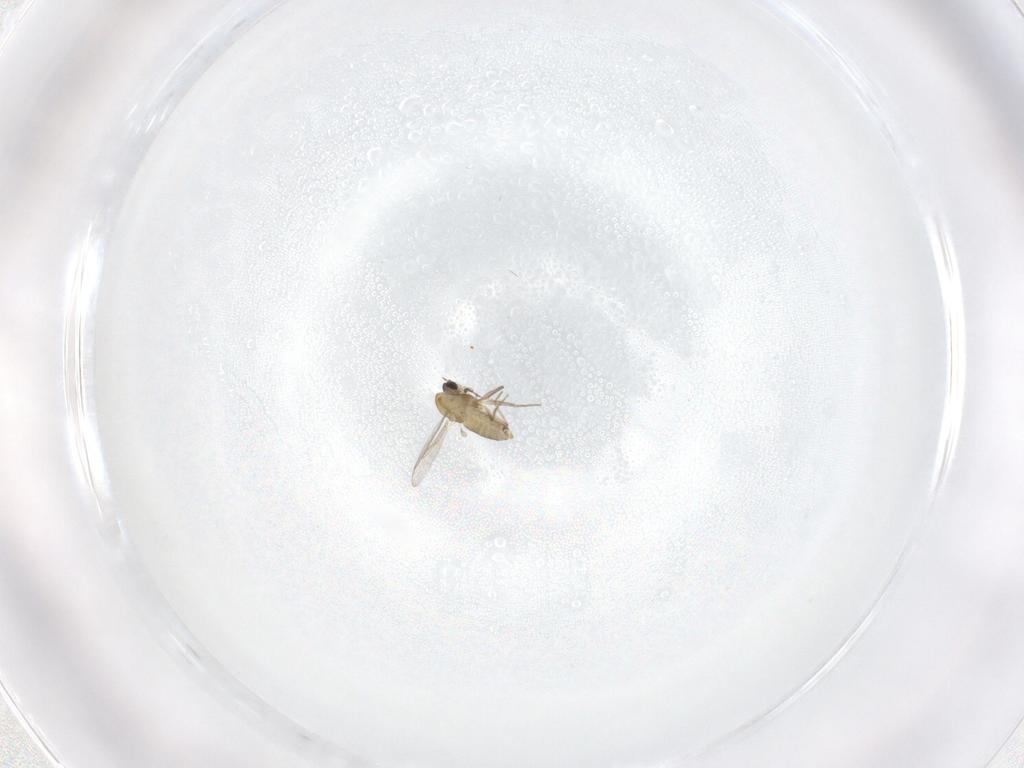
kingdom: Animalia
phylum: Arthropoda
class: Insecta
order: Diptera
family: Chironomidae
